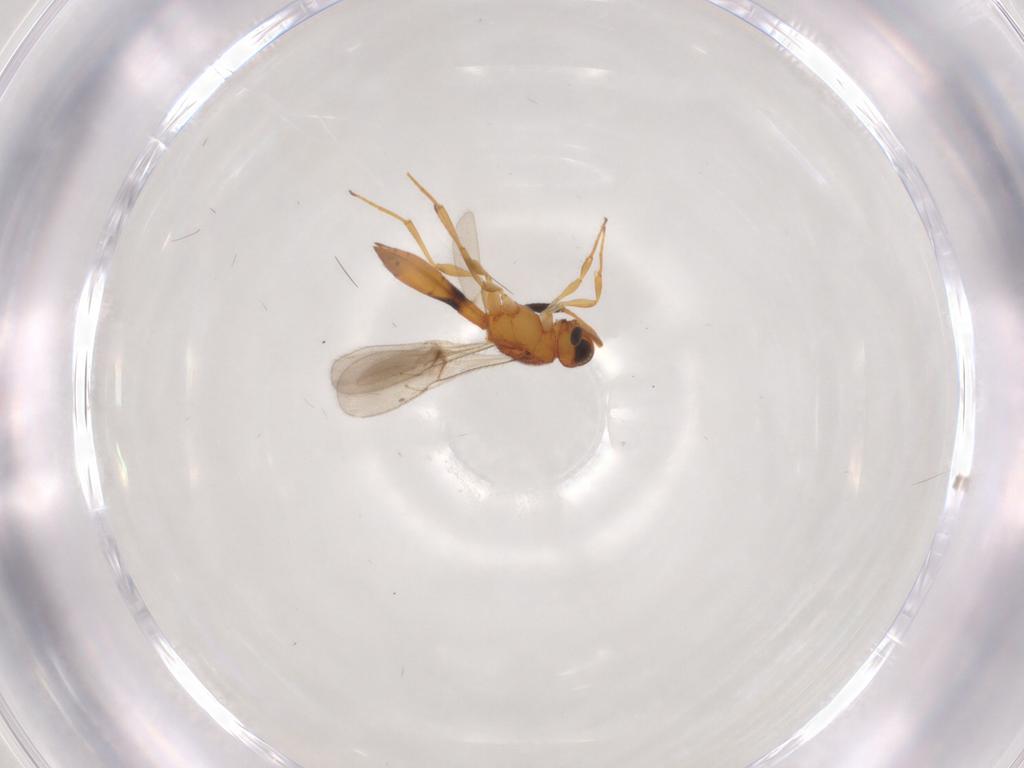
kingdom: Animalia
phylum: Arthropoda
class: Insecta
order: Hymenoptera
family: Scelionidae
